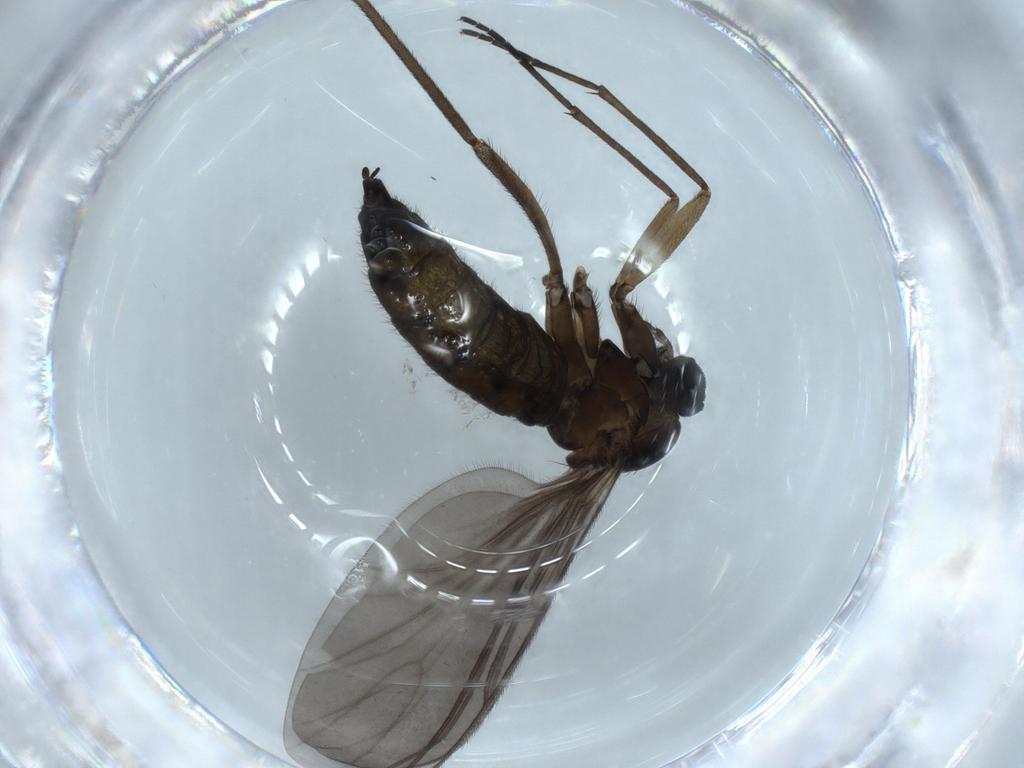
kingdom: Animalia
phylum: Arthropoda
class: Insecta
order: Diptera
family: Sciaridae
